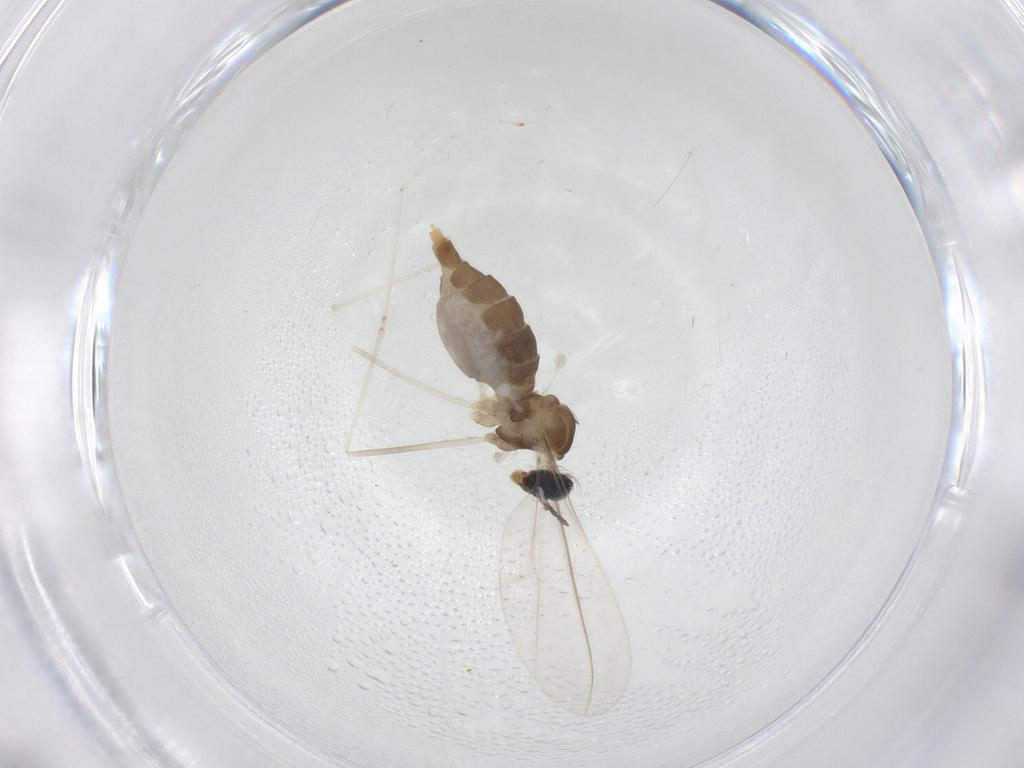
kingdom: Animalia
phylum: Arthropoda
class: Insecta
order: Diptera
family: Cecidomyiidae
